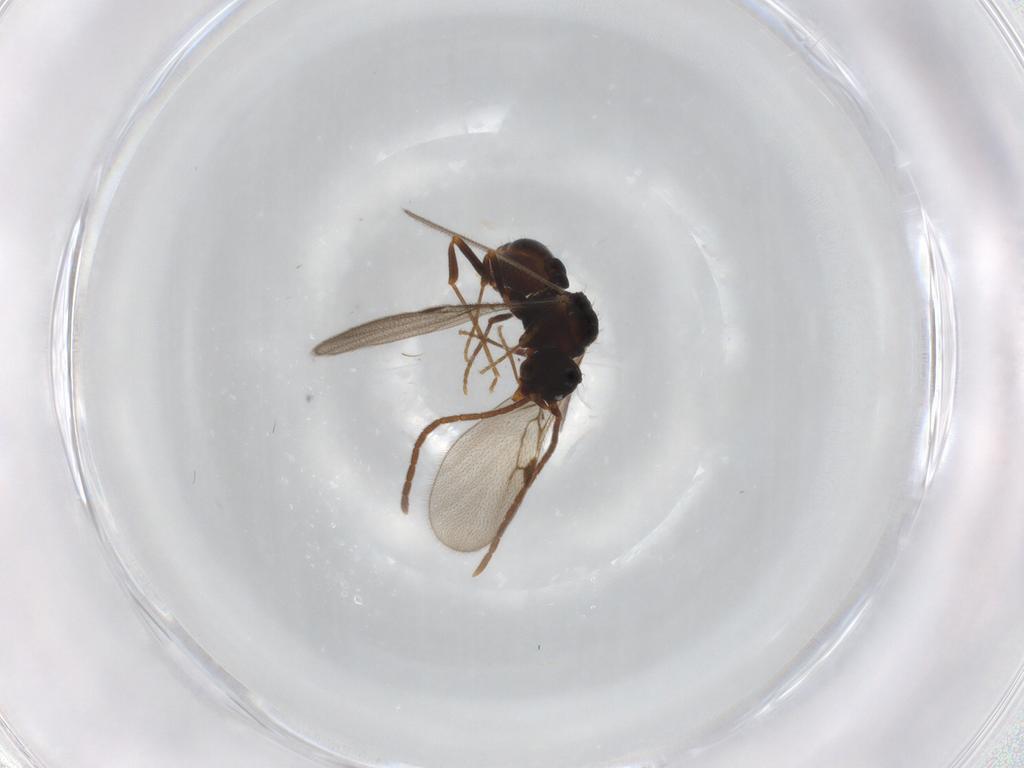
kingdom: Animalia
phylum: Arthropoda
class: Insecta
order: Hymenoptera
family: Formicidae
